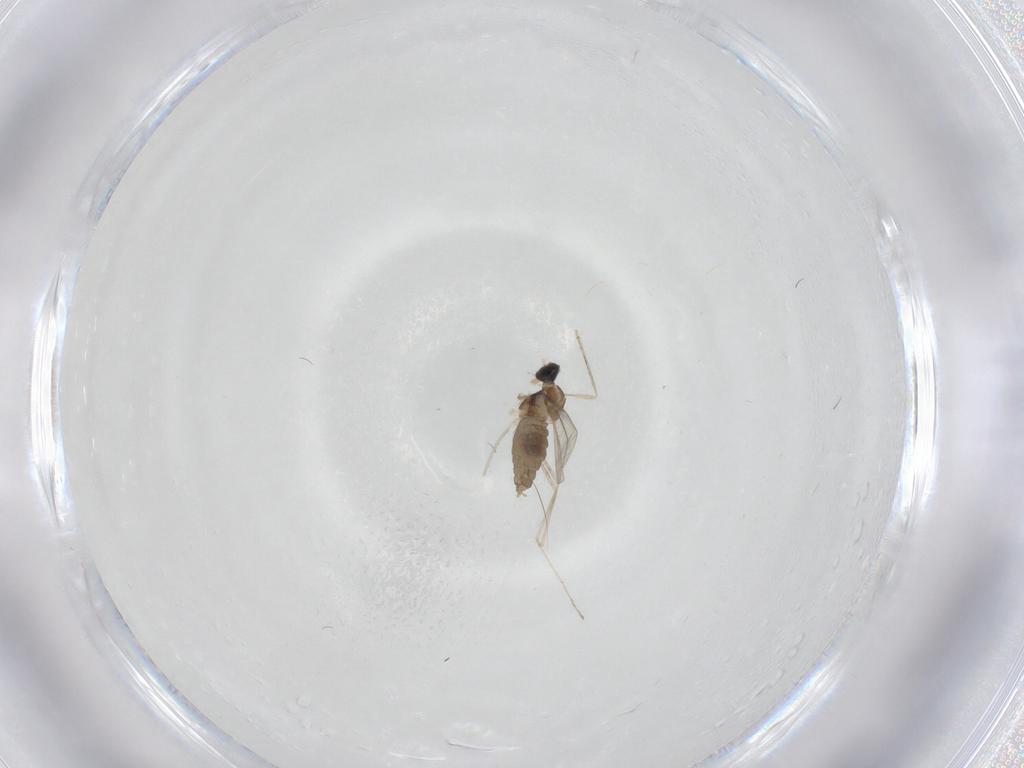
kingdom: Animalia
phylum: Arthropoda
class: Insecta
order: Diptera
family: Cecidomyiidae
